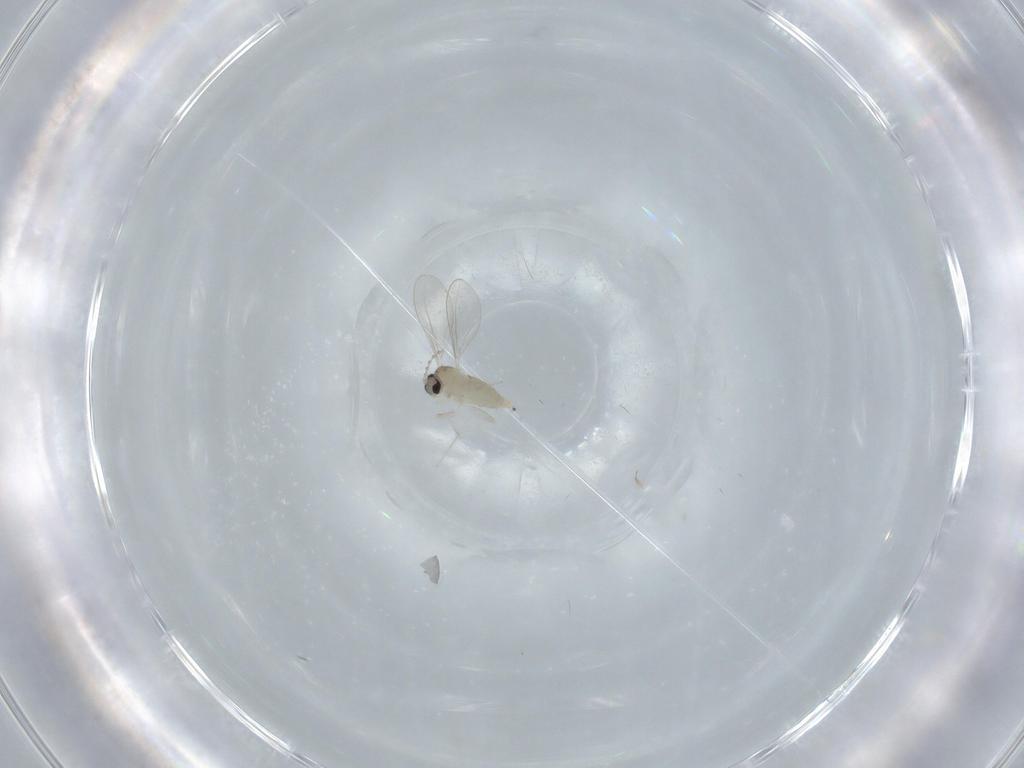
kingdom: Animalia
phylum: Arthropoda
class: Insecta
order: Diptera
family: Cecidomyiidae
